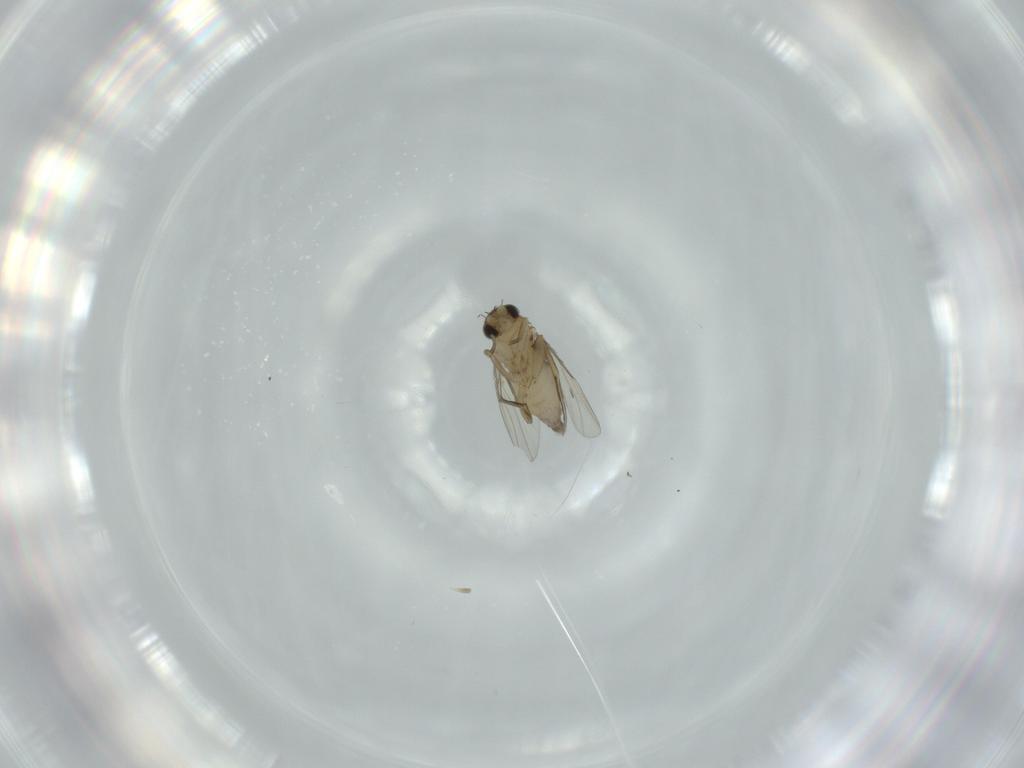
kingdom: Animalia
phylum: Arthropoda
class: Insecta
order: Diptera
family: Phoridae
